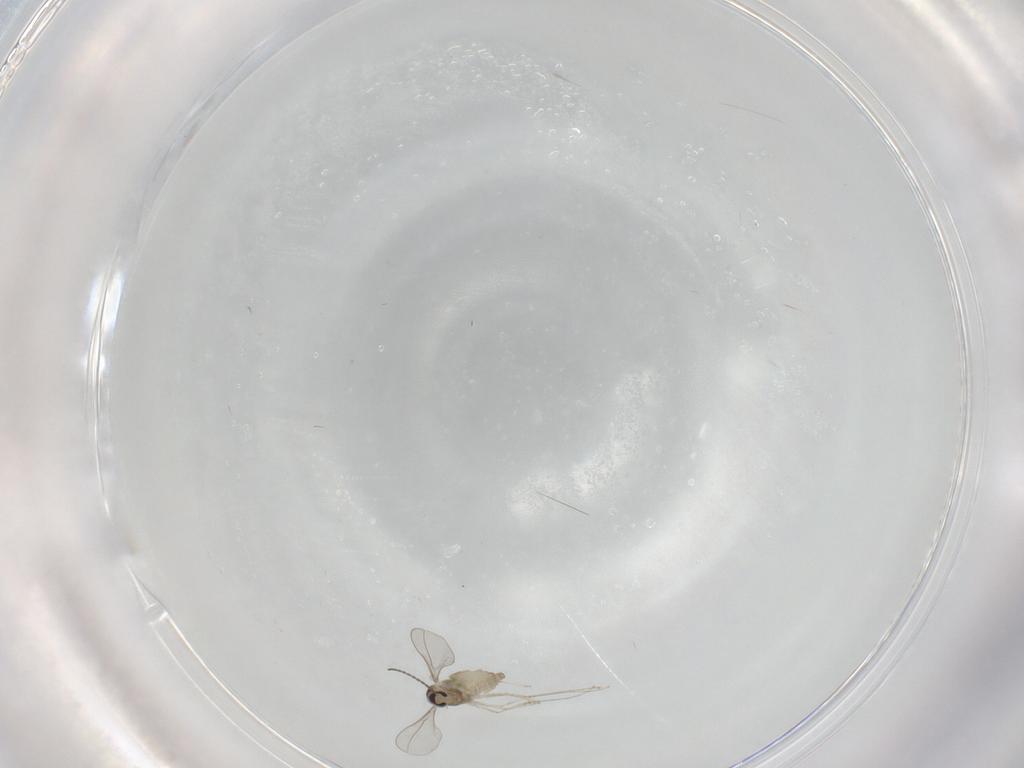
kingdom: Animalia
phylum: Arthropoda
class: Insecta
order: Diptera
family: Cecidomyiidae
